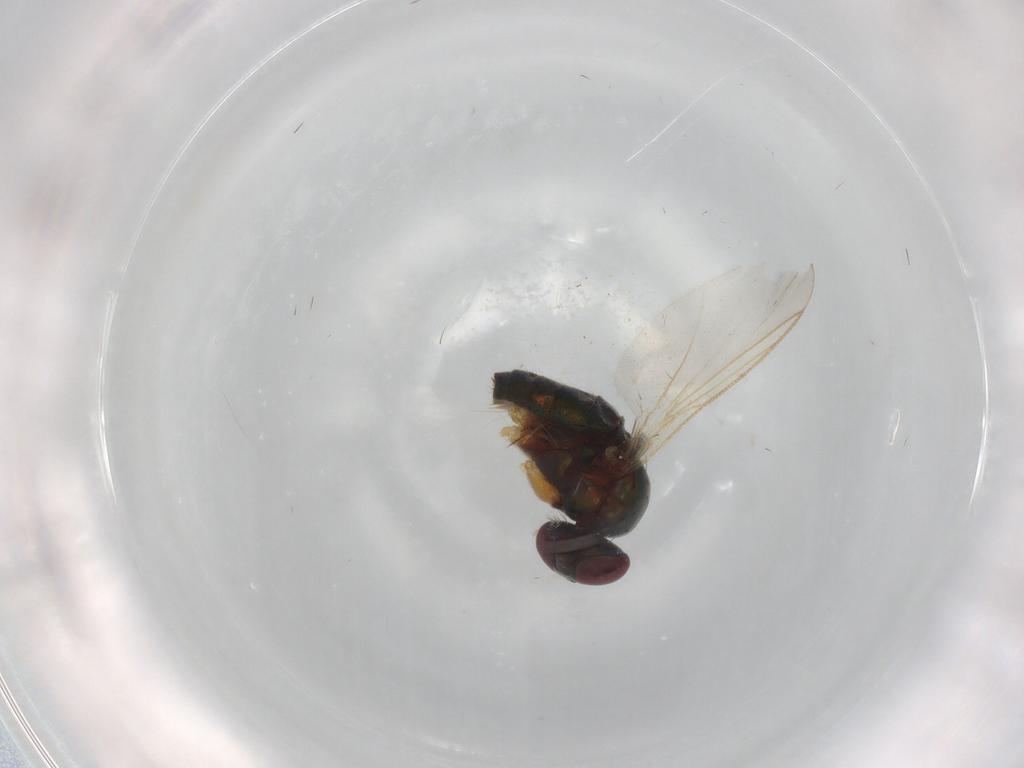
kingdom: Animalia
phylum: Arthropoda
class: Insecta
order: Diptera
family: Dolichopodidae
